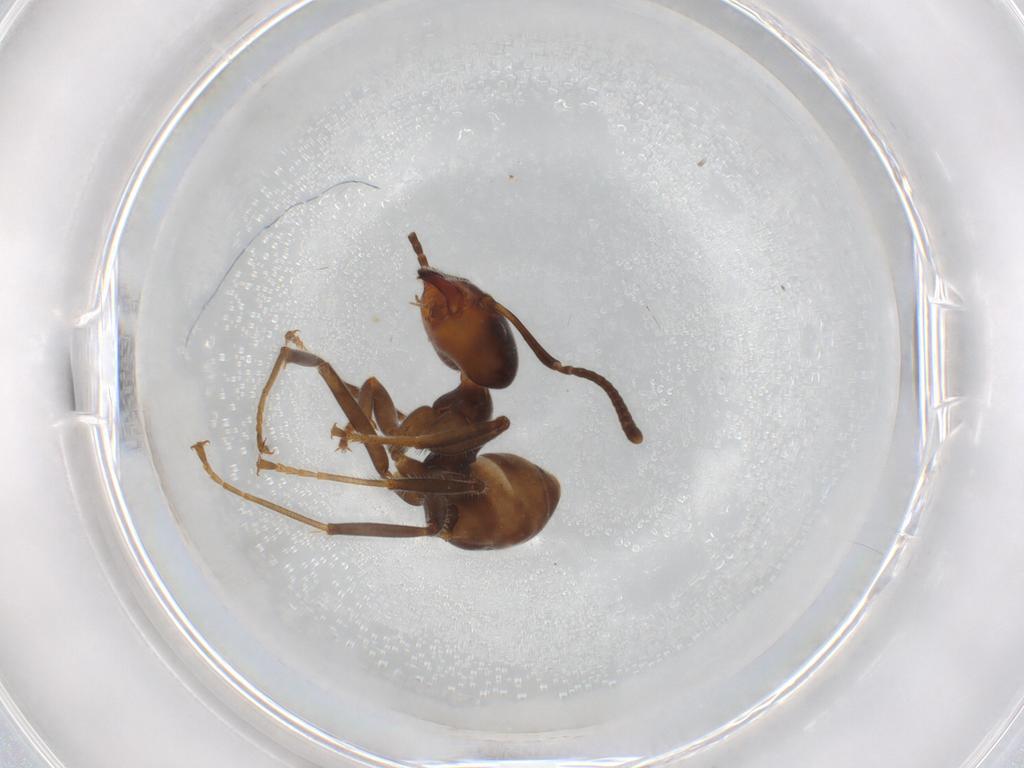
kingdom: Animalia
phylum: Arthropoda
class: Insecta
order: Hymenoptera
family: Formicidae
